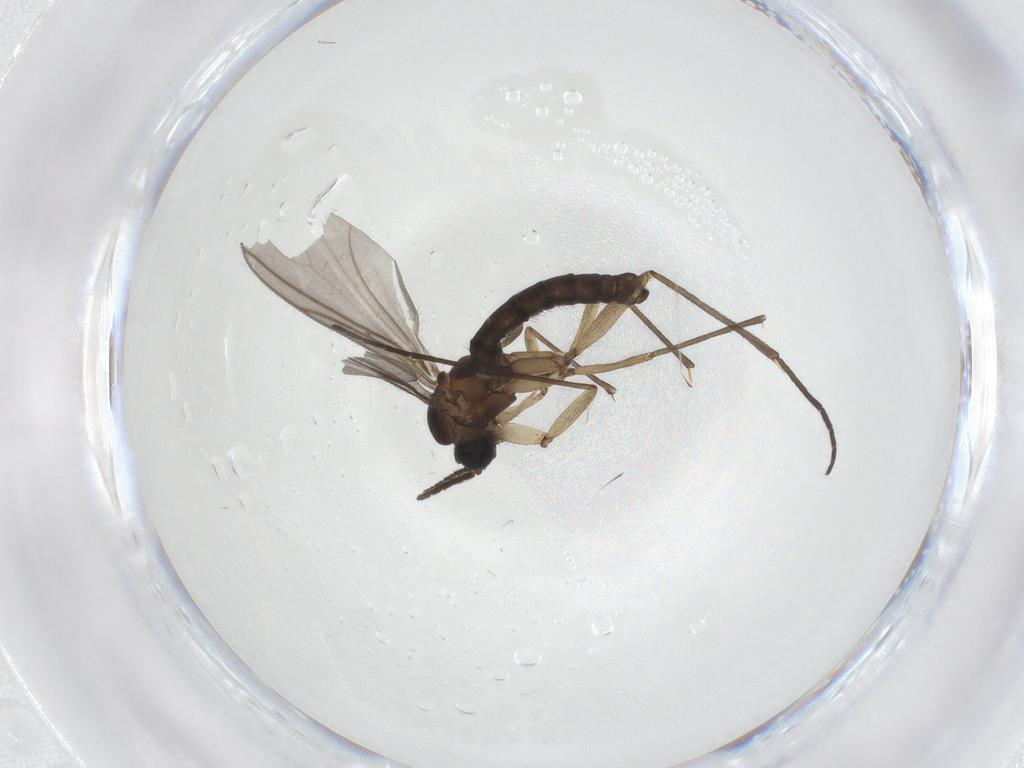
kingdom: Animalia
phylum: Arthropoda
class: Insecta
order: Diptera
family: Sciaridae
